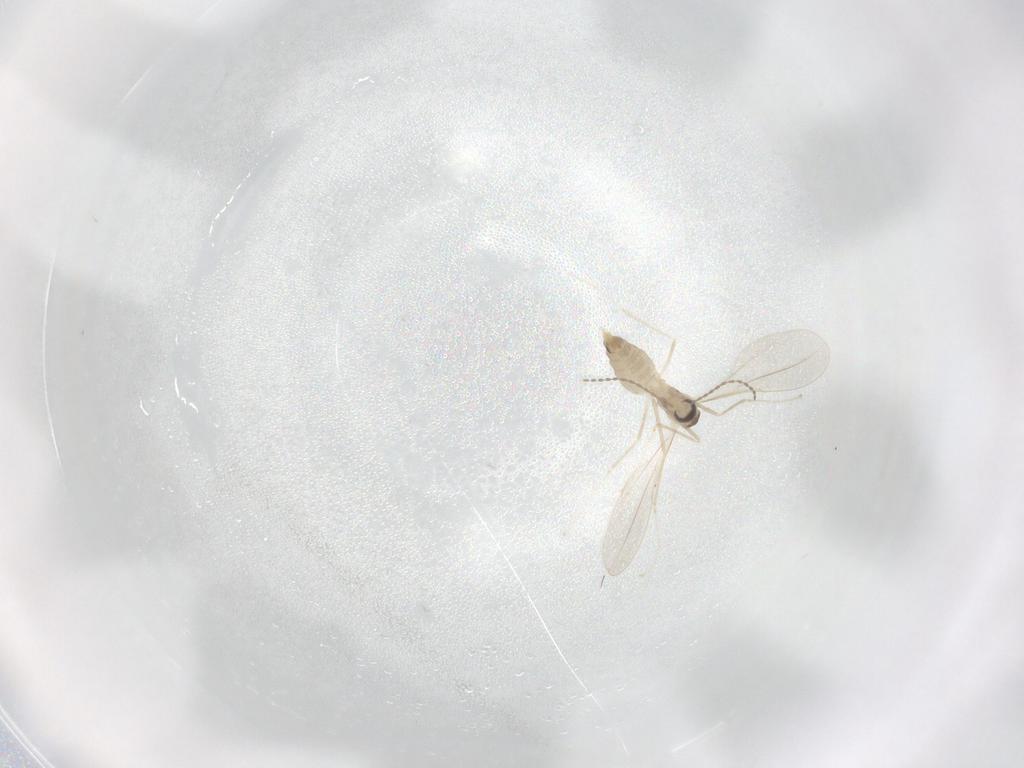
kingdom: Animalia
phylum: Arthropoda
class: Insecta
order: Diptera
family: Cecidomyiidae
